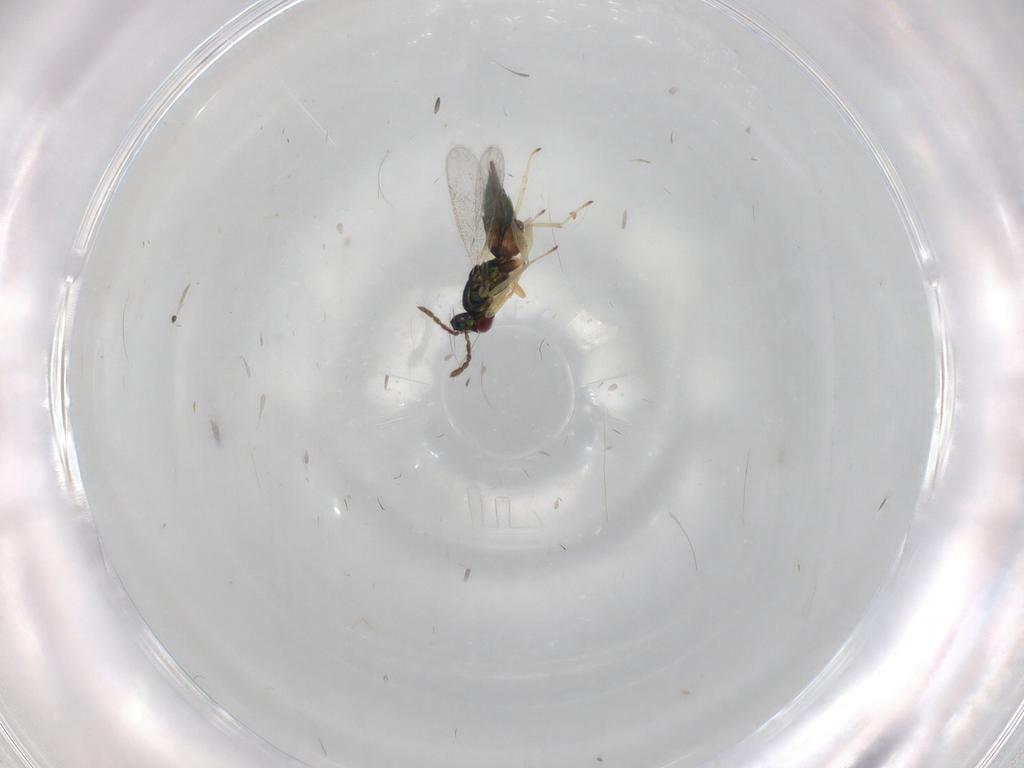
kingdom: Animalia
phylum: Arthropoda
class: Insecta
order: Hymenoptera
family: Eulophidae
